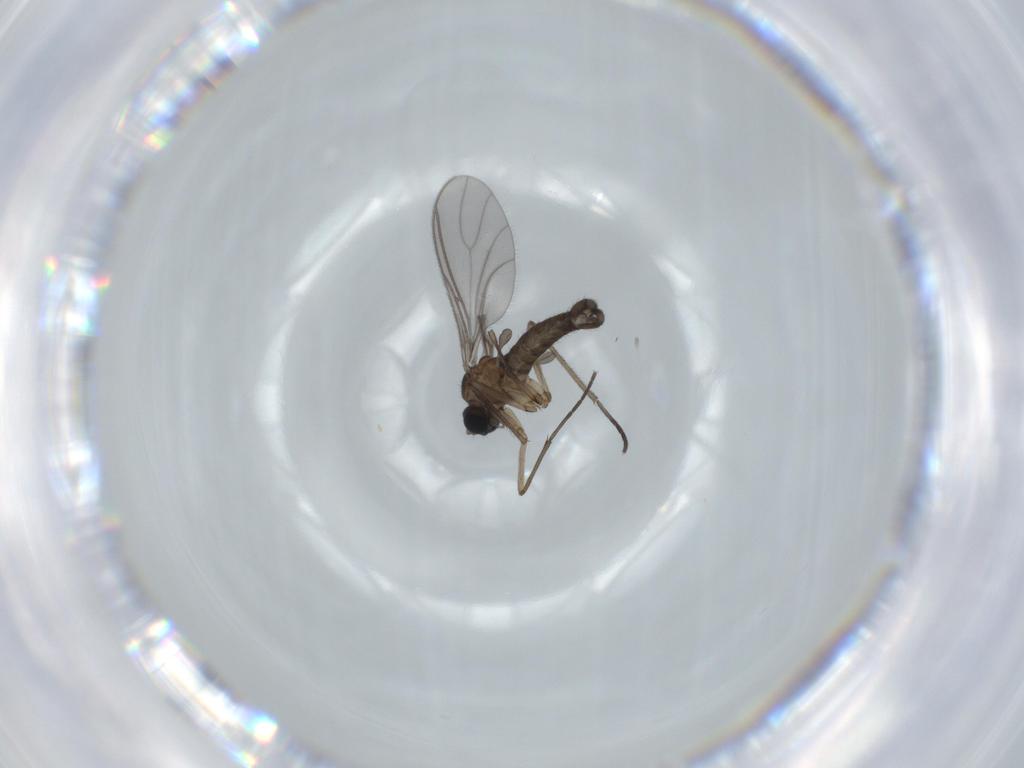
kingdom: Animalia
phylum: Arthropoda
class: Insecta
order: Diptera
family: Sciaridae
